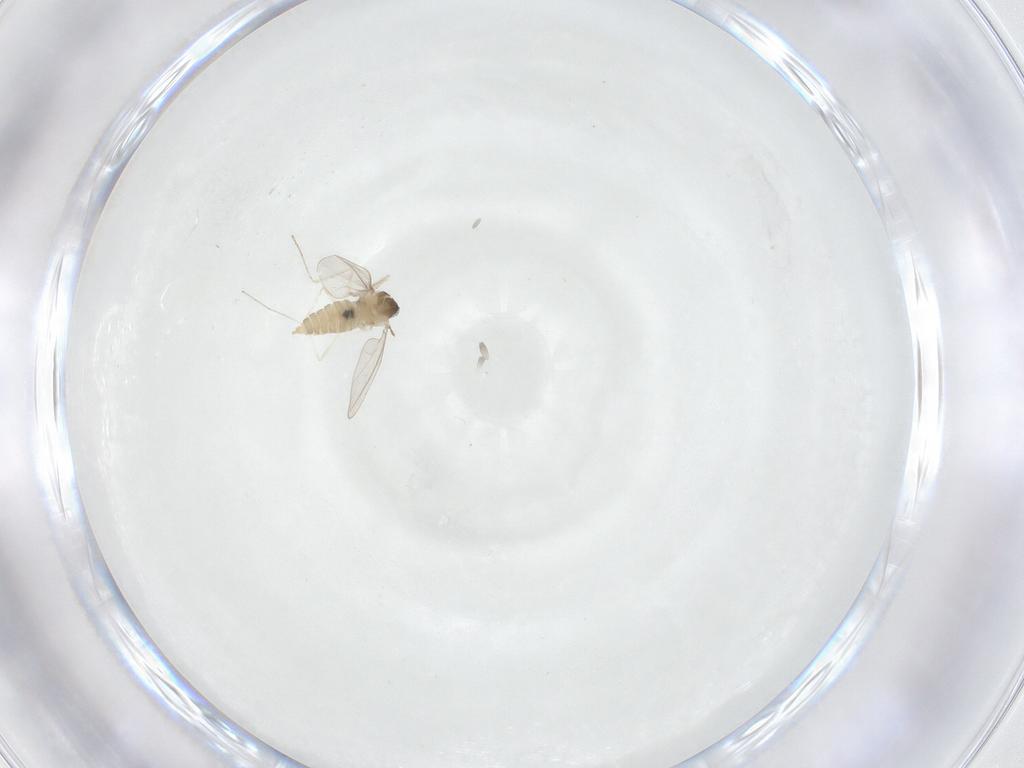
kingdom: Animalia
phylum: Arthropoda
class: Insecta
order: Diptera
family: Cecidomyiidae
